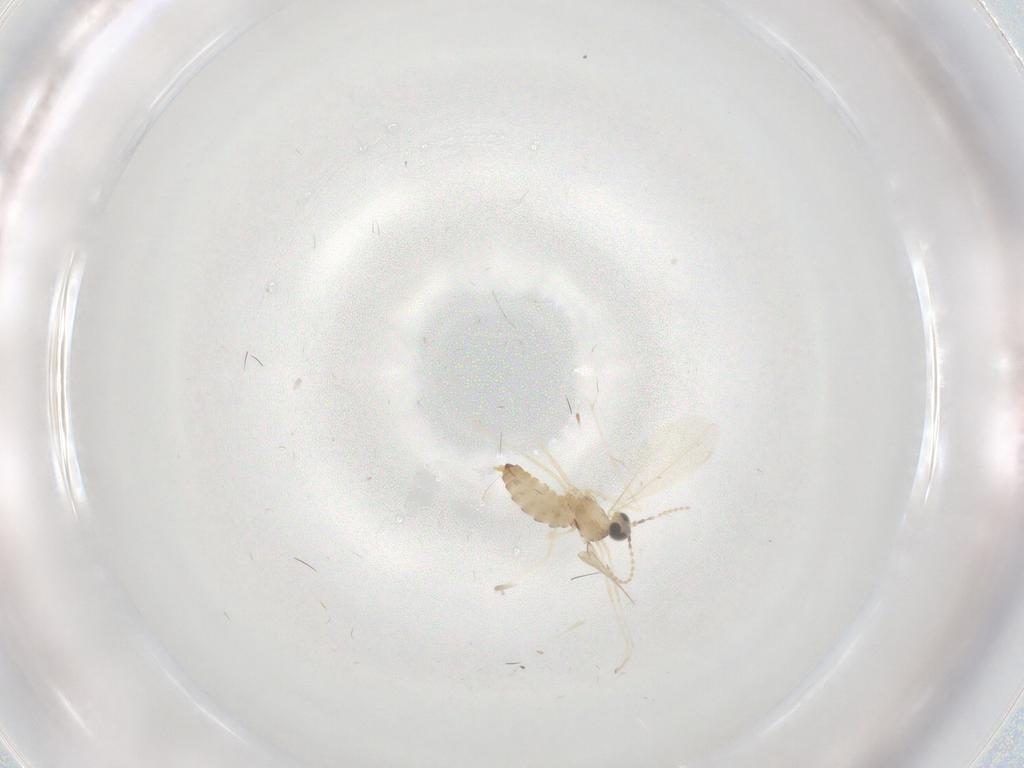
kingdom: Animalia
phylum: Arthropoda
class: Insecta
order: Diptera
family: Cecidomyiidae
